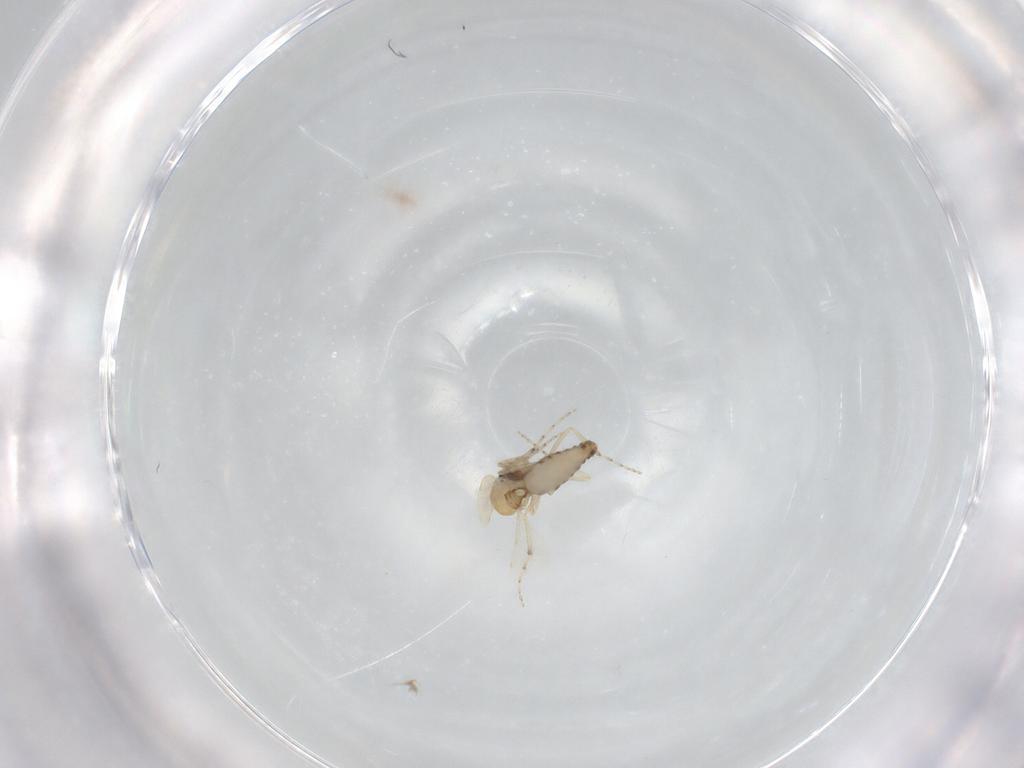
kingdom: Animalia
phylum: Arthropoda
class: Insecta
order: Diptera
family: Ceratopogonidae
